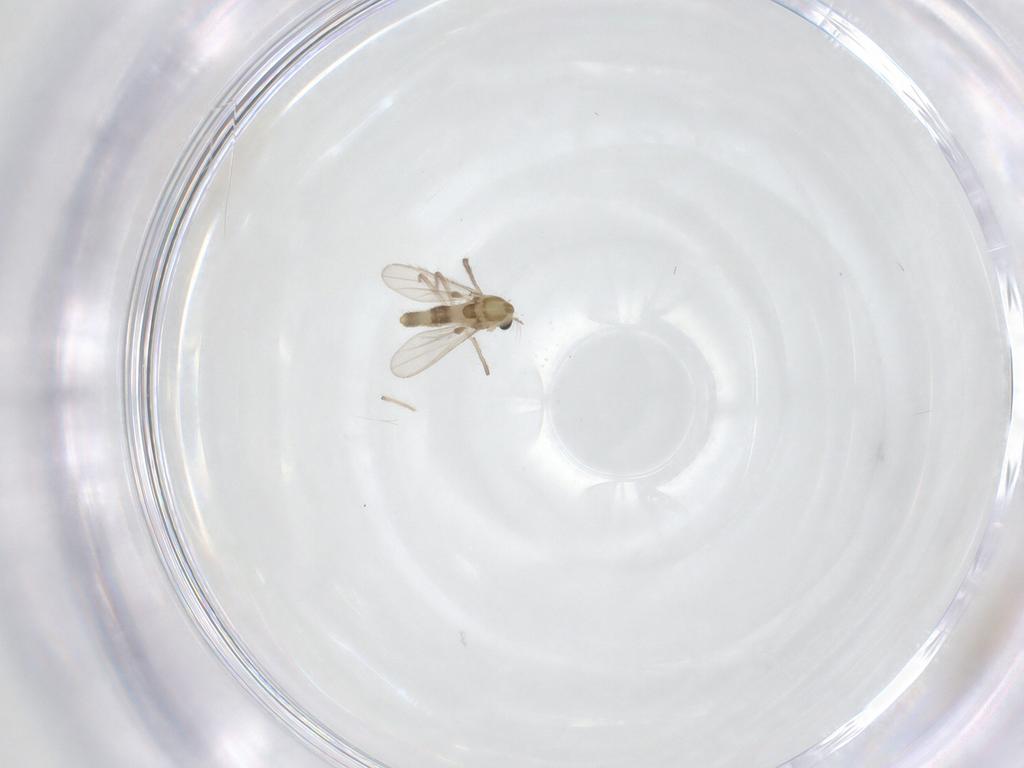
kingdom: Animalia
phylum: Arthropoda
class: Insecta
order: Diptera
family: Chironomidae
